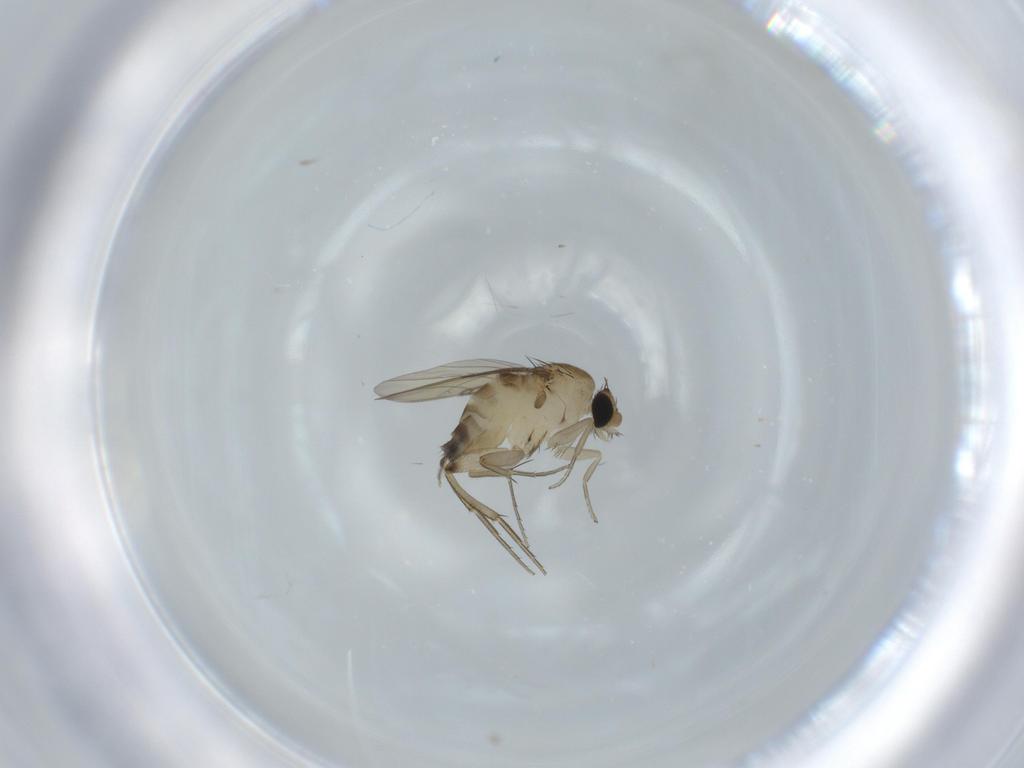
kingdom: Animalia
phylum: Arthropoda
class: Insecta
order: Diptera
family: Phoridae
